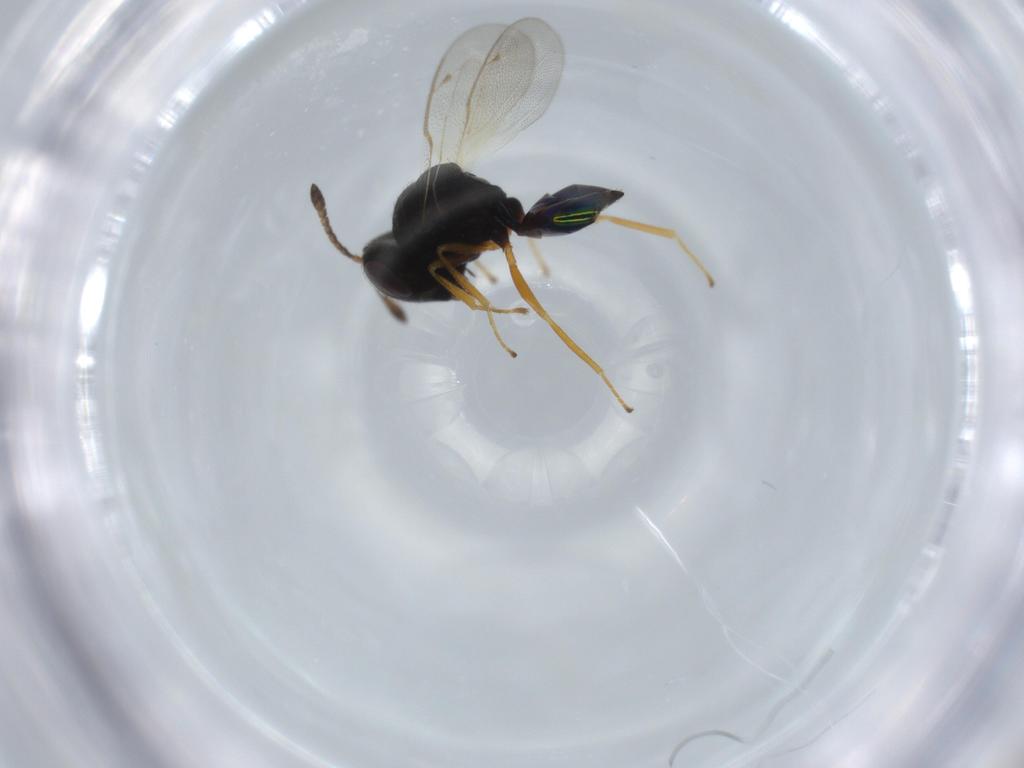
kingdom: Animalia
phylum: Arthropoda
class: Insecta
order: Hymenoptera
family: Pteromalidae
